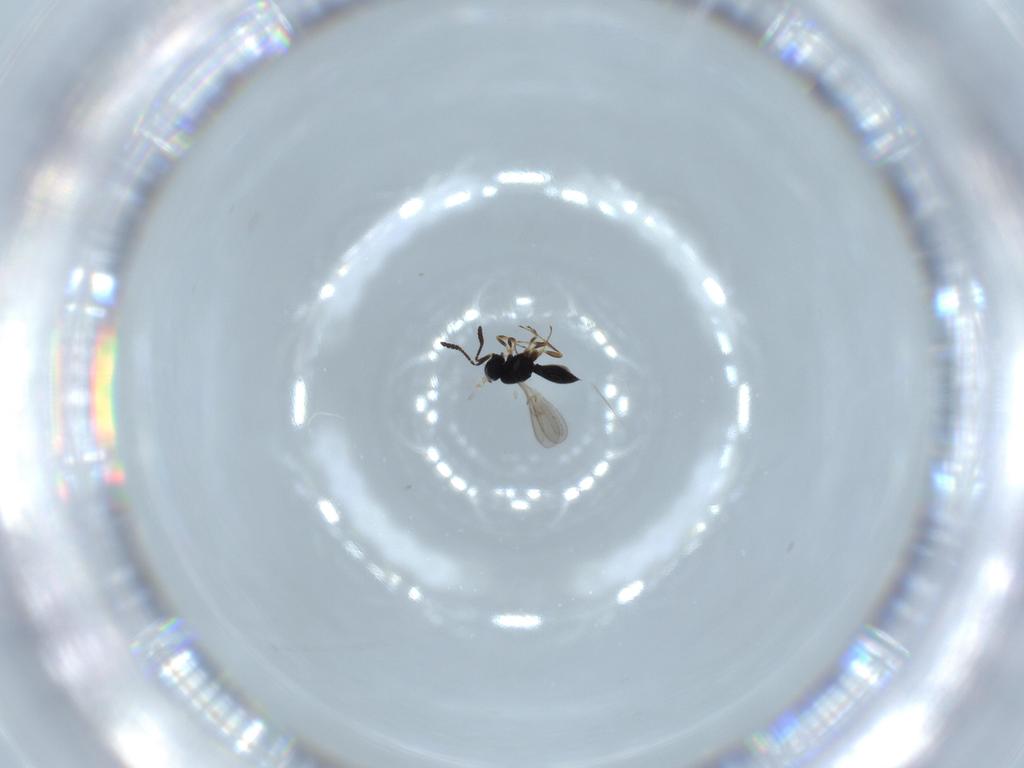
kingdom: Animalia
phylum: Arthropoda
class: Insecta
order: Hymenoptera
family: Scelionidae
